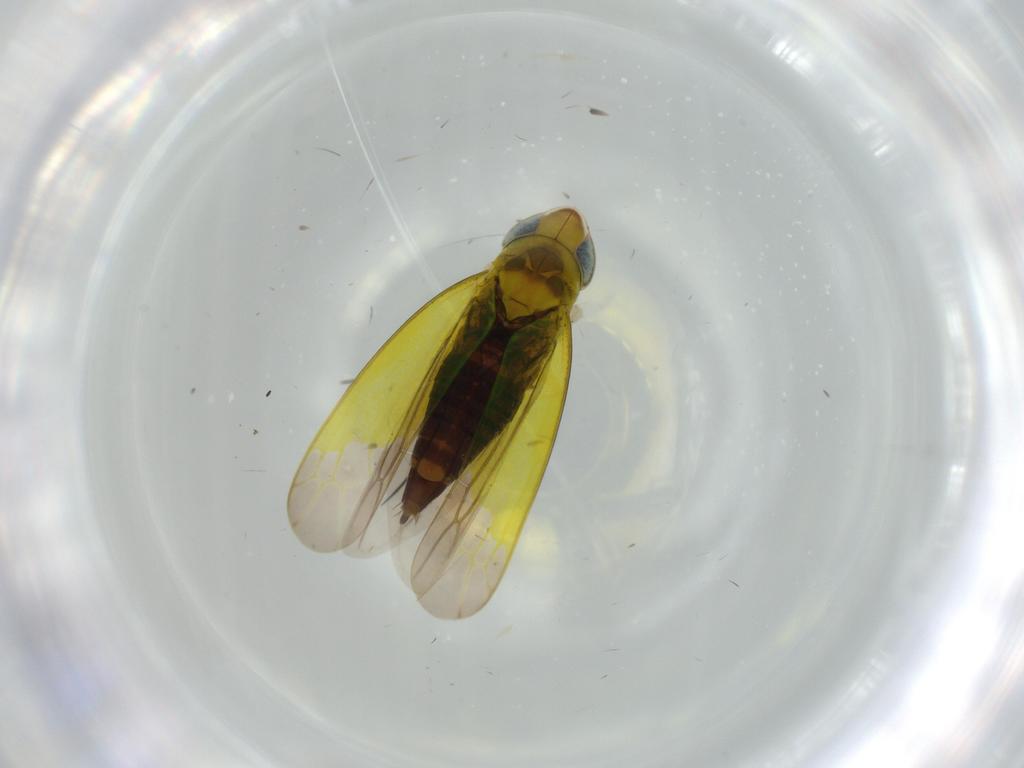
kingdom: Animalia
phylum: Arthropoda
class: Insecta
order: Hemiptera
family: Cicadellidae
